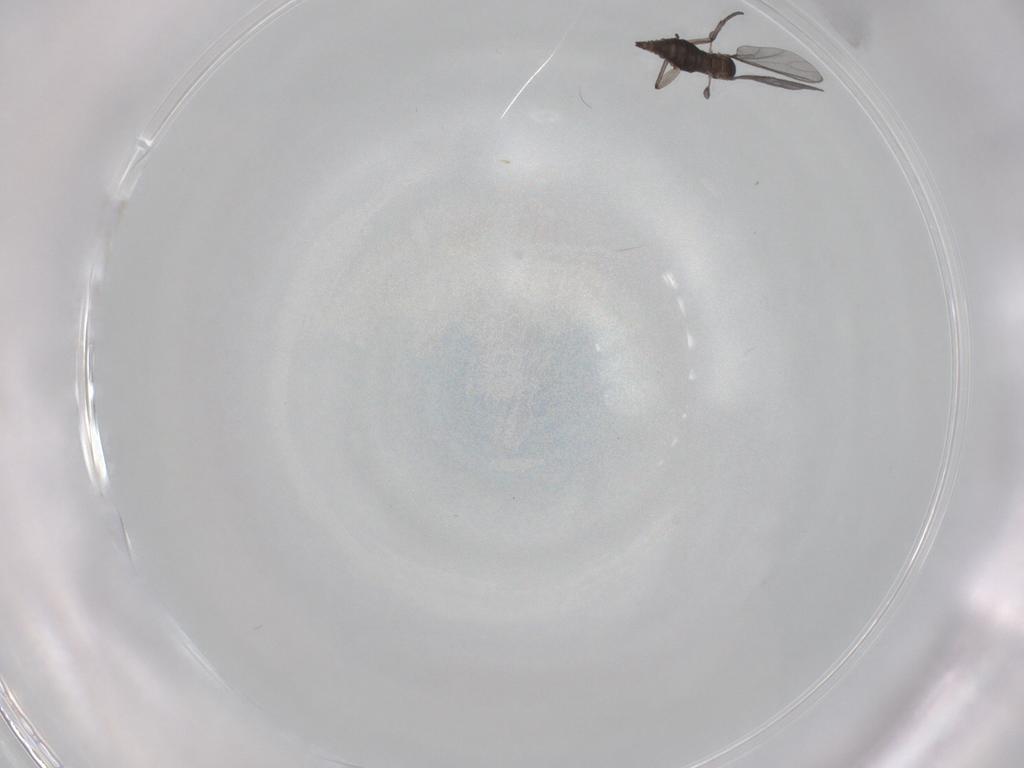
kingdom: Animalia
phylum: Arthropoda
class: Insecta
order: Diptera
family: Sciaridae
